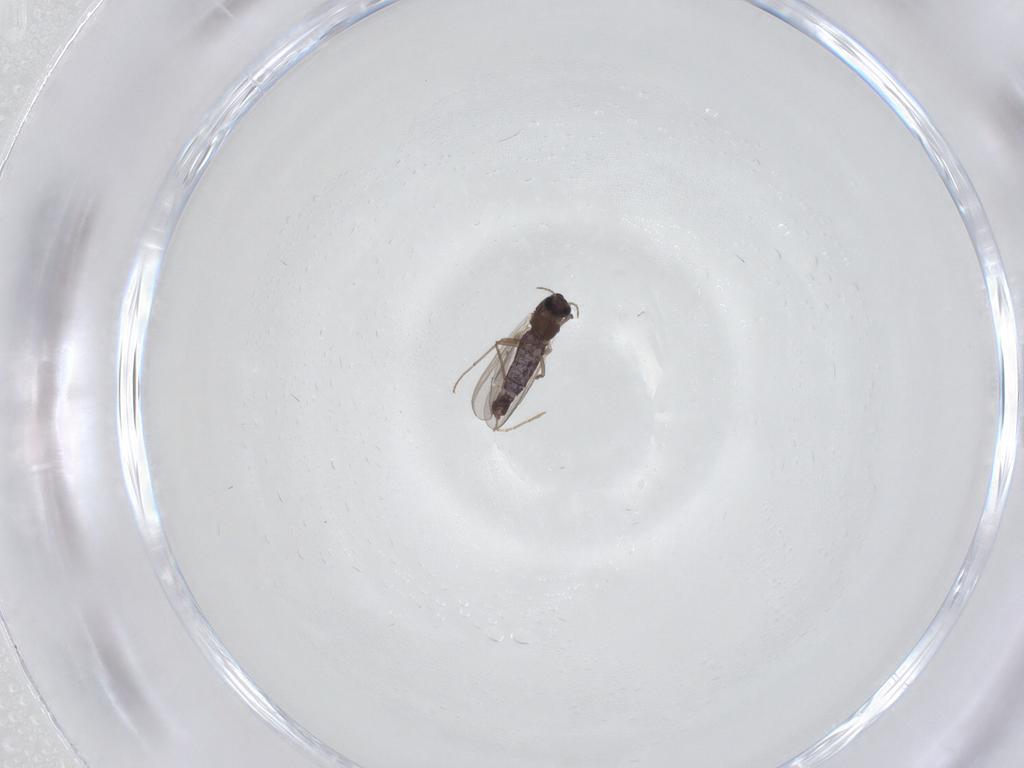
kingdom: Animalia
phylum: Arthropoda
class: Insecta
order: Diptera
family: Chironomidae
